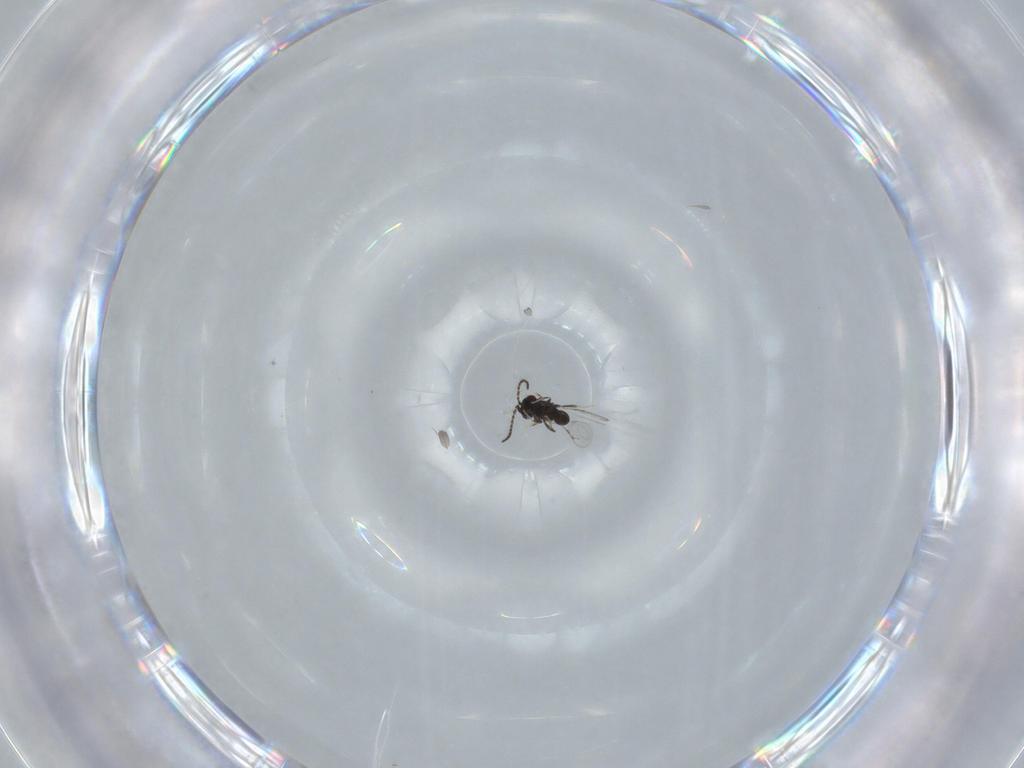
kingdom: Animalia
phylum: Arthropoda
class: Insecta
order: Hymenoptera
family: Ceraphronidae
